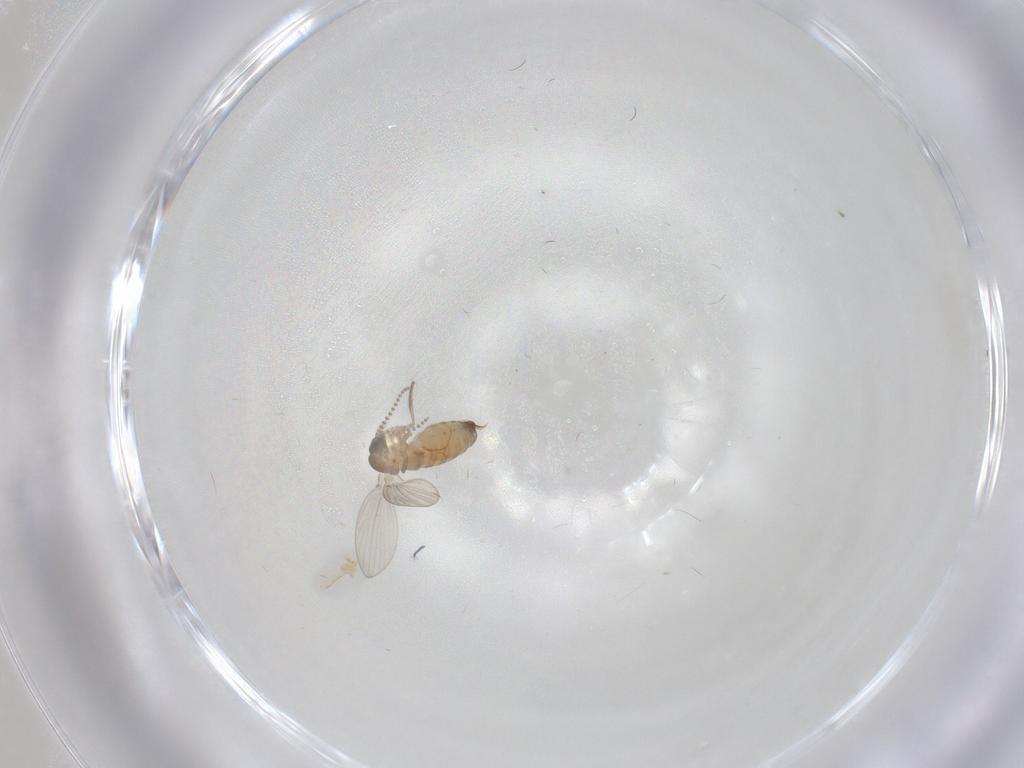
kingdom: Animalia
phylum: Arthropoda
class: Insecta
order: Diptera
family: Psychodidae
